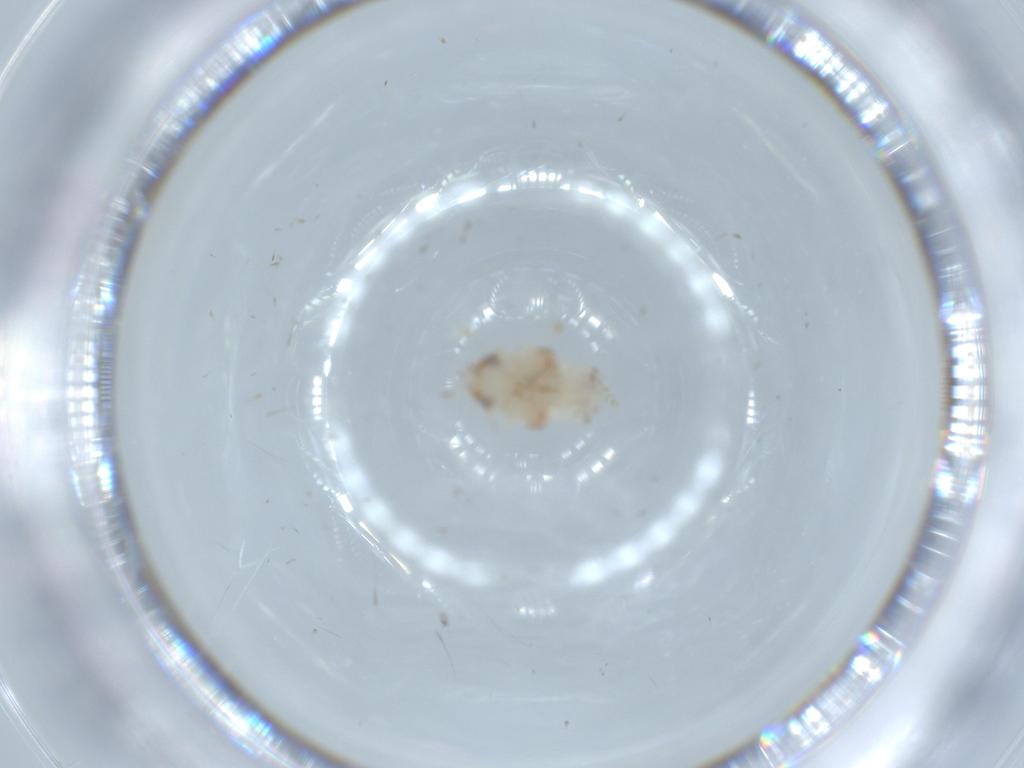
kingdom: Animalia
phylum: Arthropoda
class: Insecta
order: Hemiptera
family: Nogodinidae
